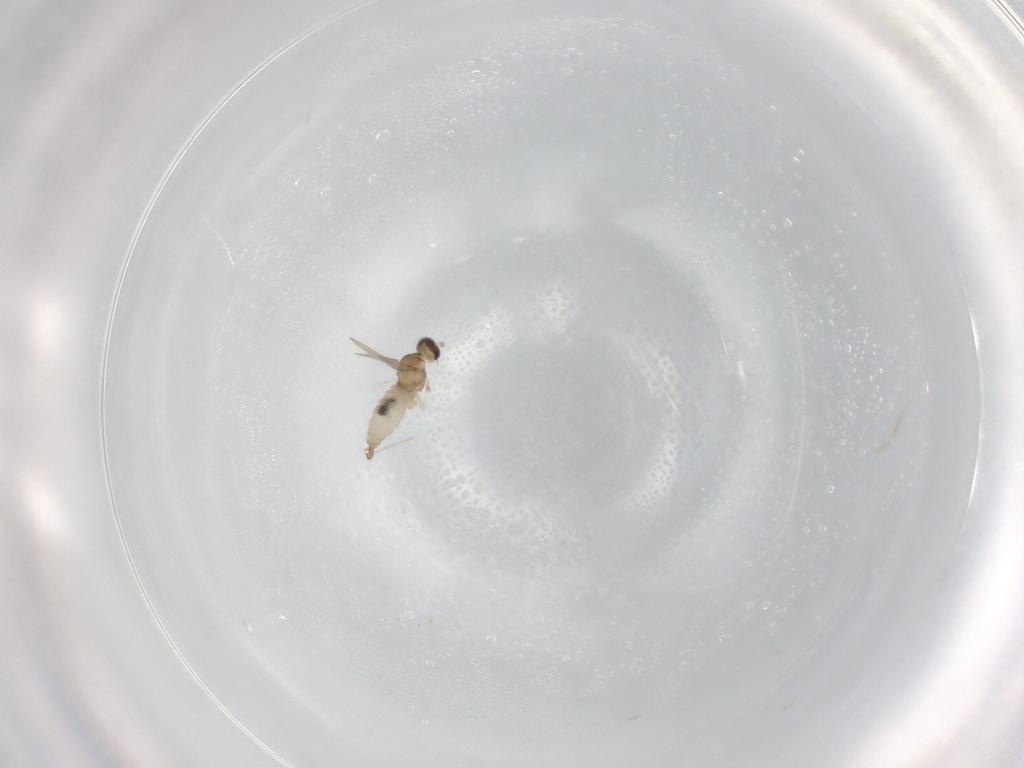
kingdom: Animalia
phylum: Arthropoda
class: Insecta
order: Diptera
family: Cecidomyiidae
